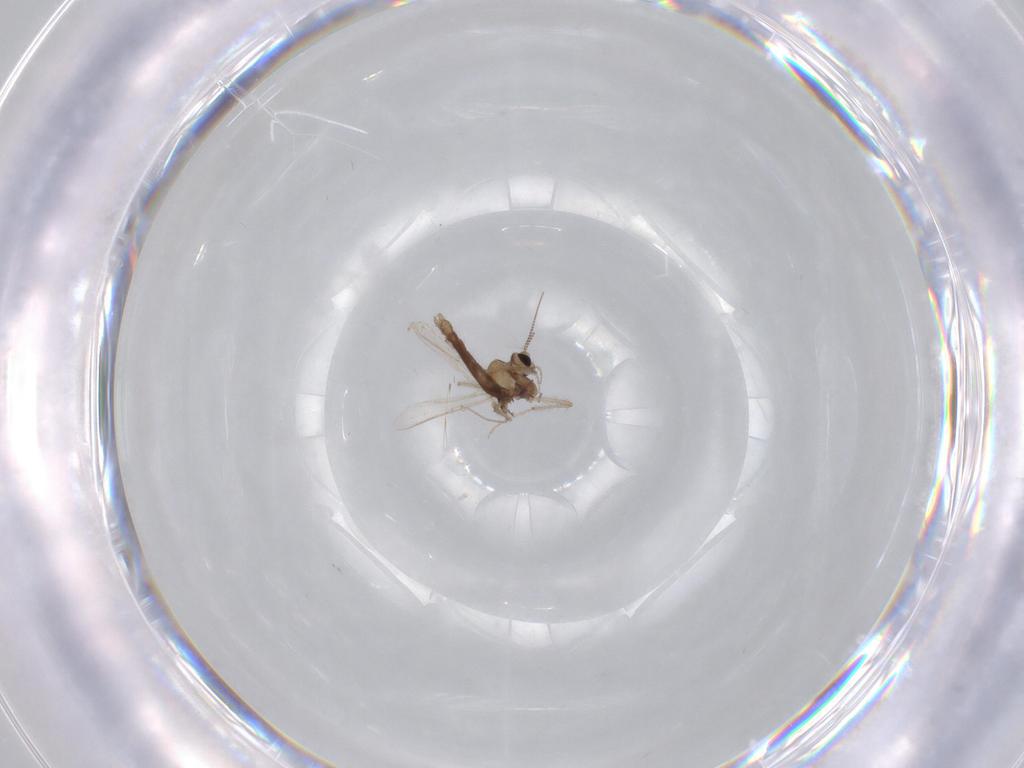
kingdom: Animalia
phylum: Arthropoda
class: Insecta
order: Diptera
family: Chironomidae
